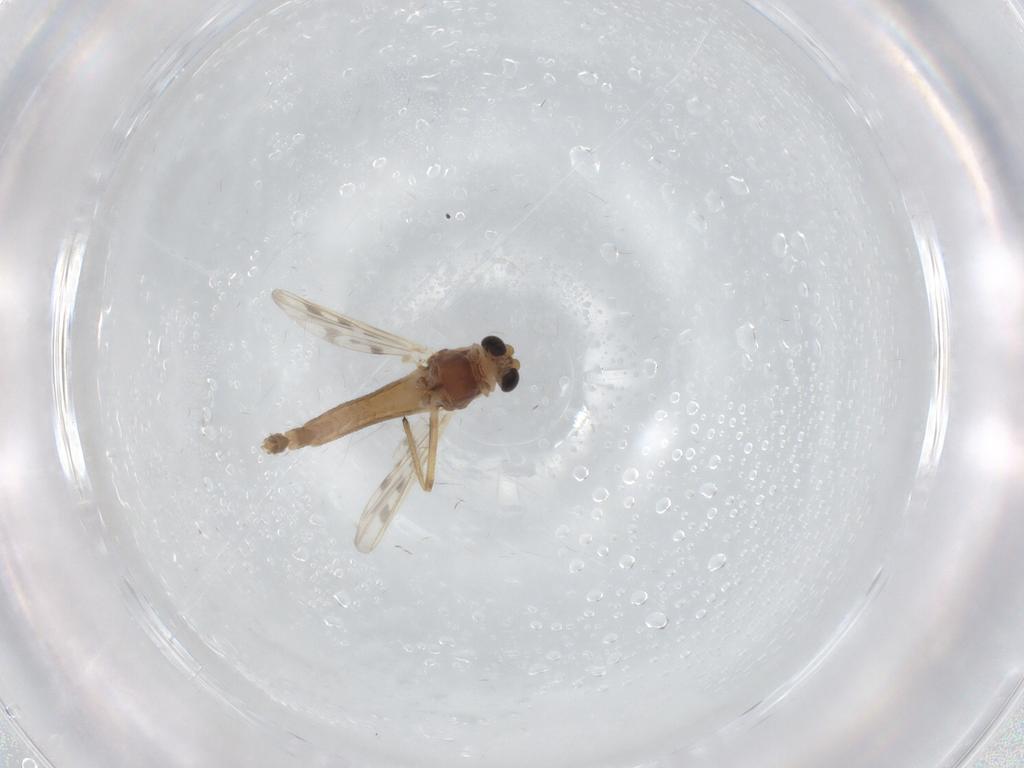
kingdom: Animalia
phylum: Arthropoda
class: Insecta
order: Diptera
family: Chironomidae
